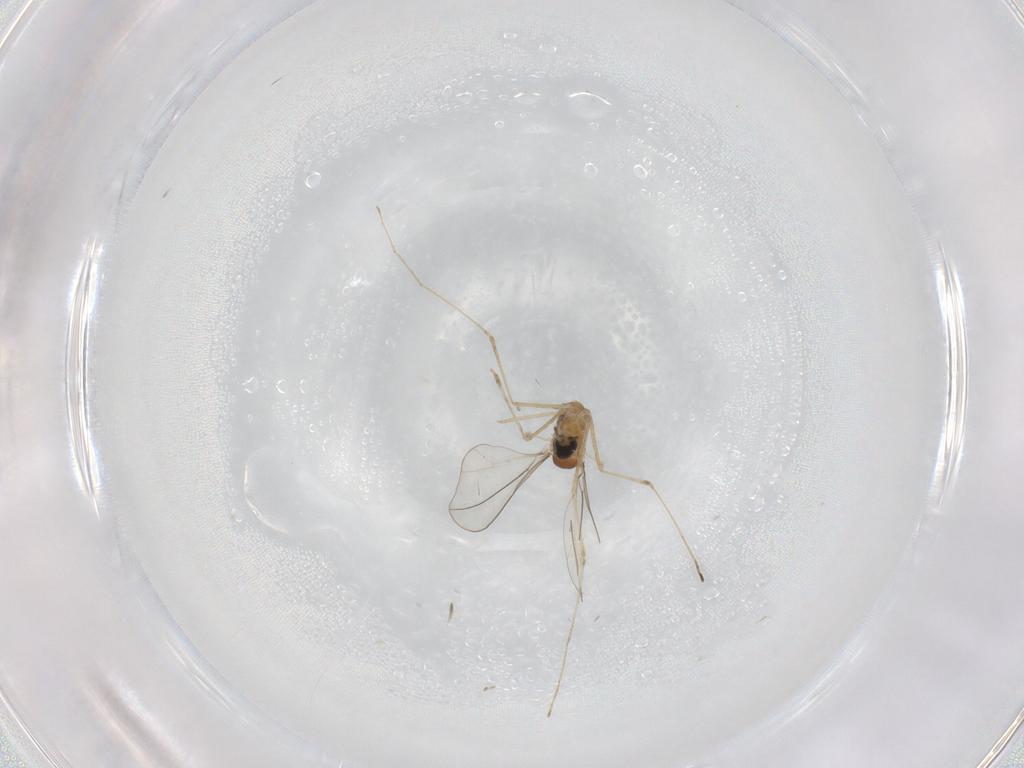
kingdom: Animalia
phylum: Arthropoda
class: Insecta
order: Diptera
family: Cecidomyiidae
